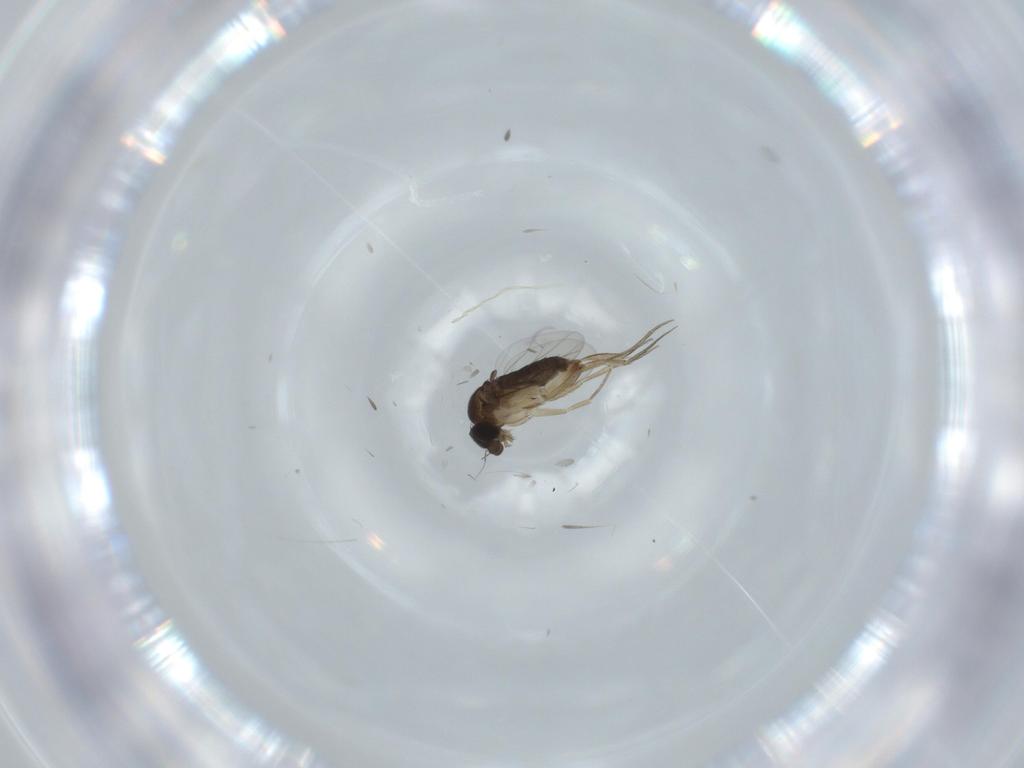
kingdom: Animalia
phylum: Arthropoda
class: Insecta
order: Diptera
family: Phoridae
